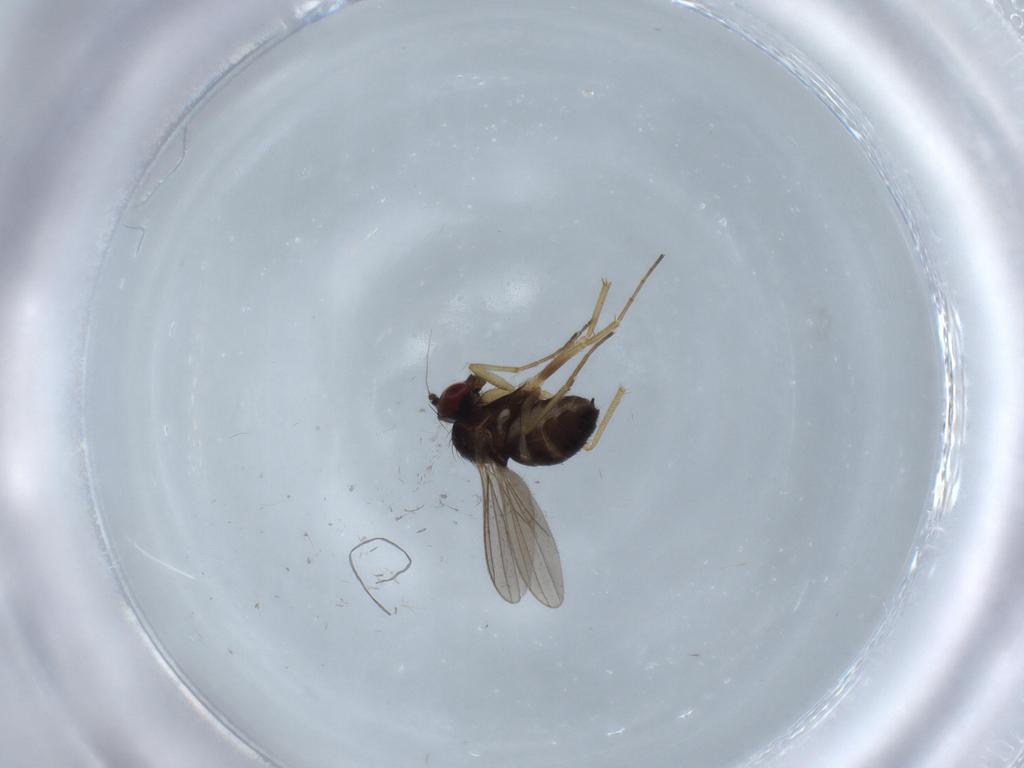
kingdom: Animalia
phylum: Arthropoda
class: Insecta
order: Diptera
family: Dolichopodidae
